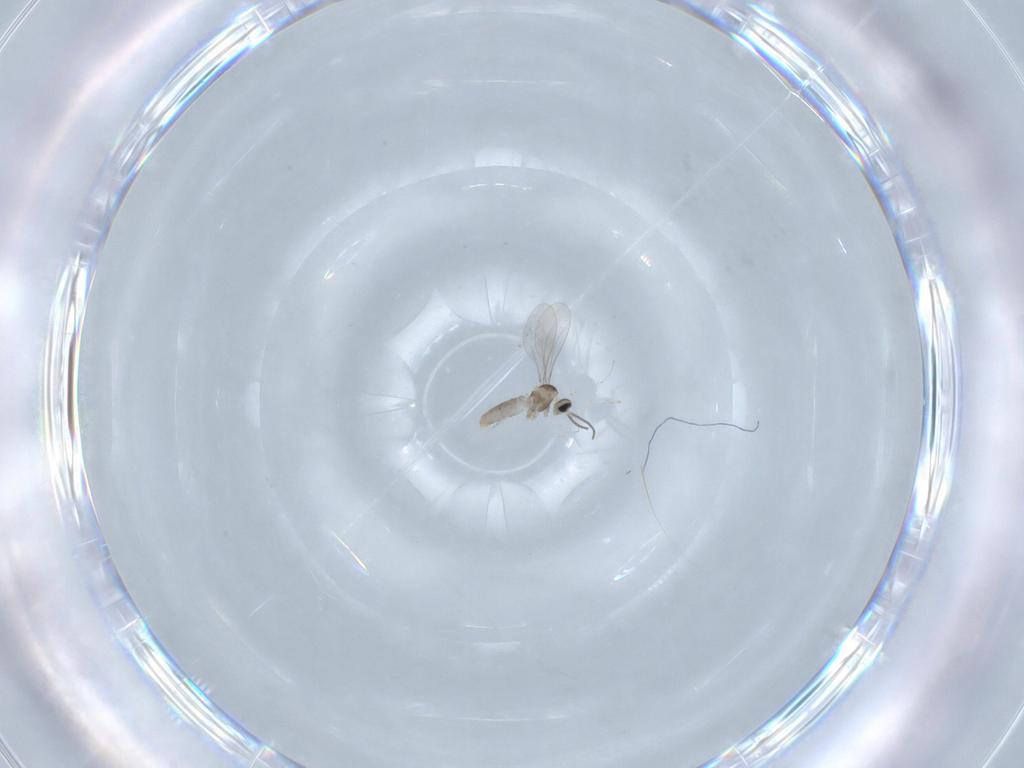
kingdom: Animalia
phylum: Arthropoda
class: Insecta
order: Diptera
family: Cecidomyiidae
